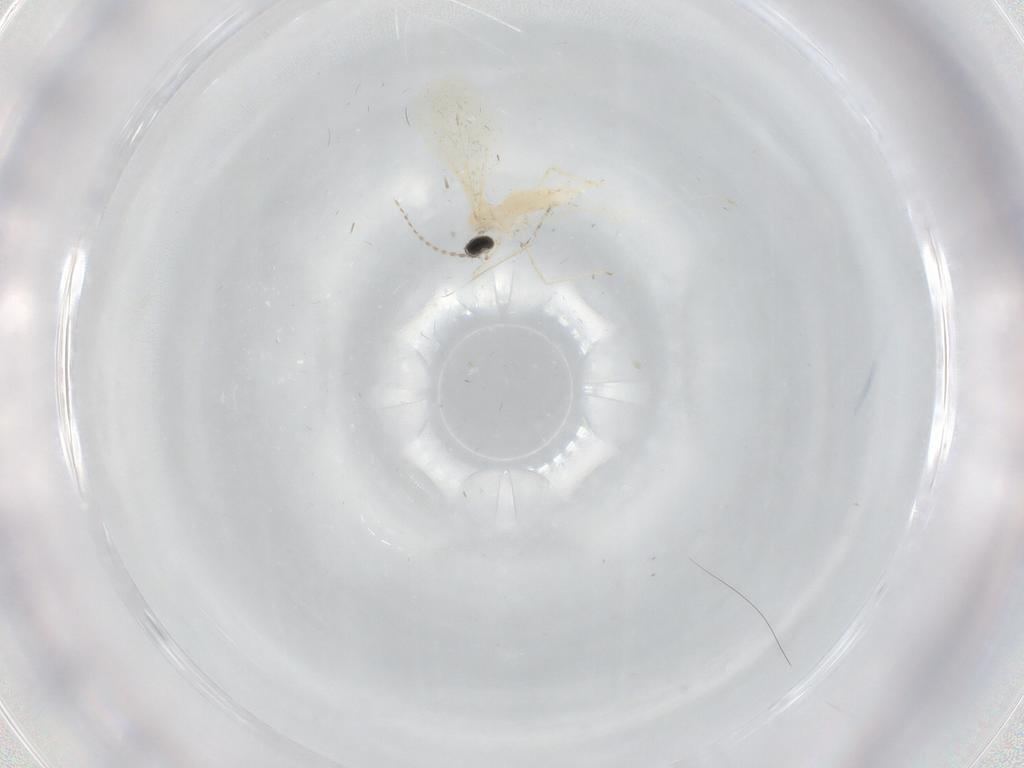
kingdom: Animalia
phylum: Arthropoda
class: Insecta
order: Diptera
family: Cecidomyiidae
